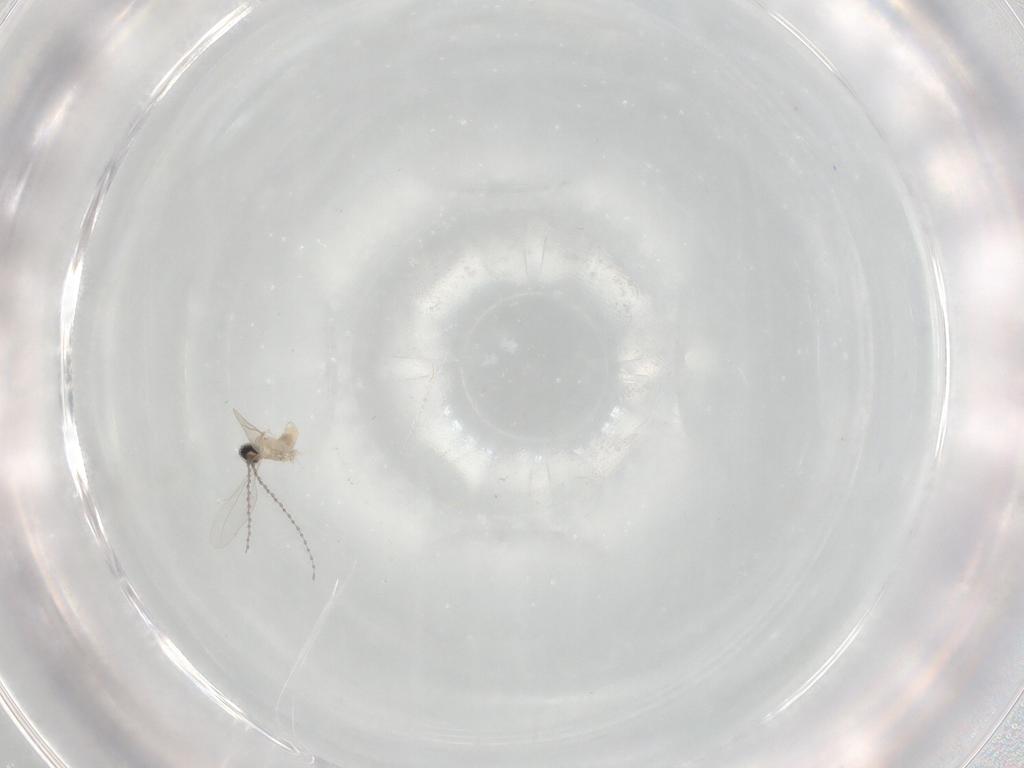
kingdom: Animalia
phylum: Arthropoda
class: Insecta
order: Diptera
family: Cecidomyiidae
